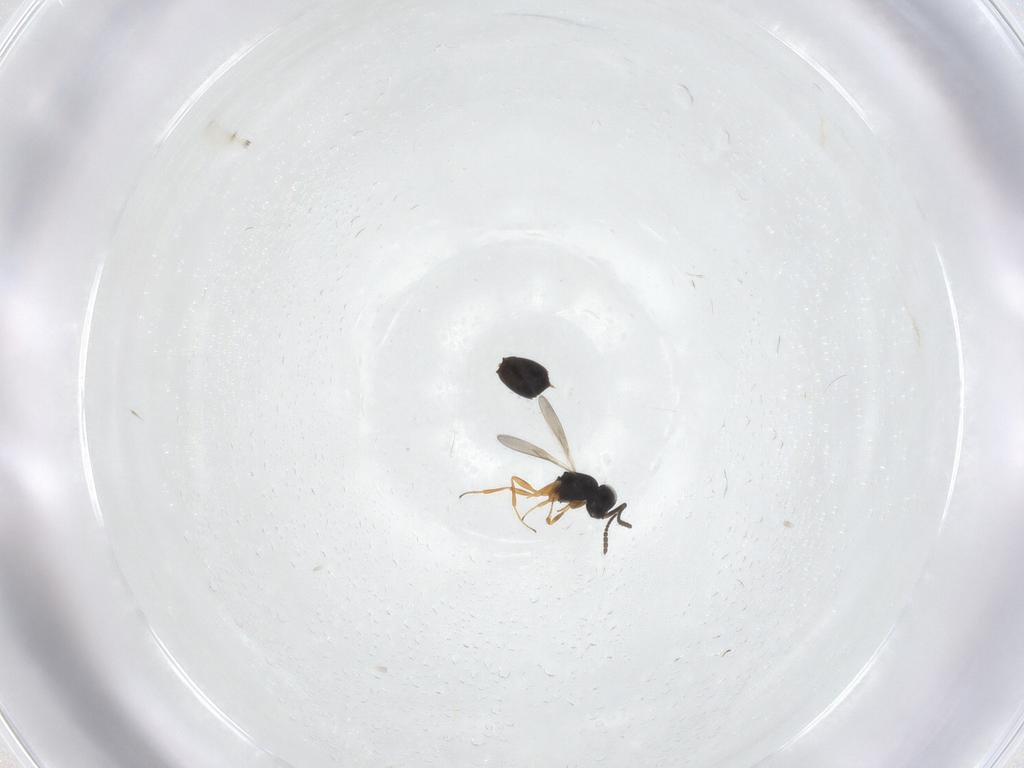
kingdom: Animalia
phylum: Arthropoda
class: Insecta
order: Hymenoptera
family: Scelionidae
